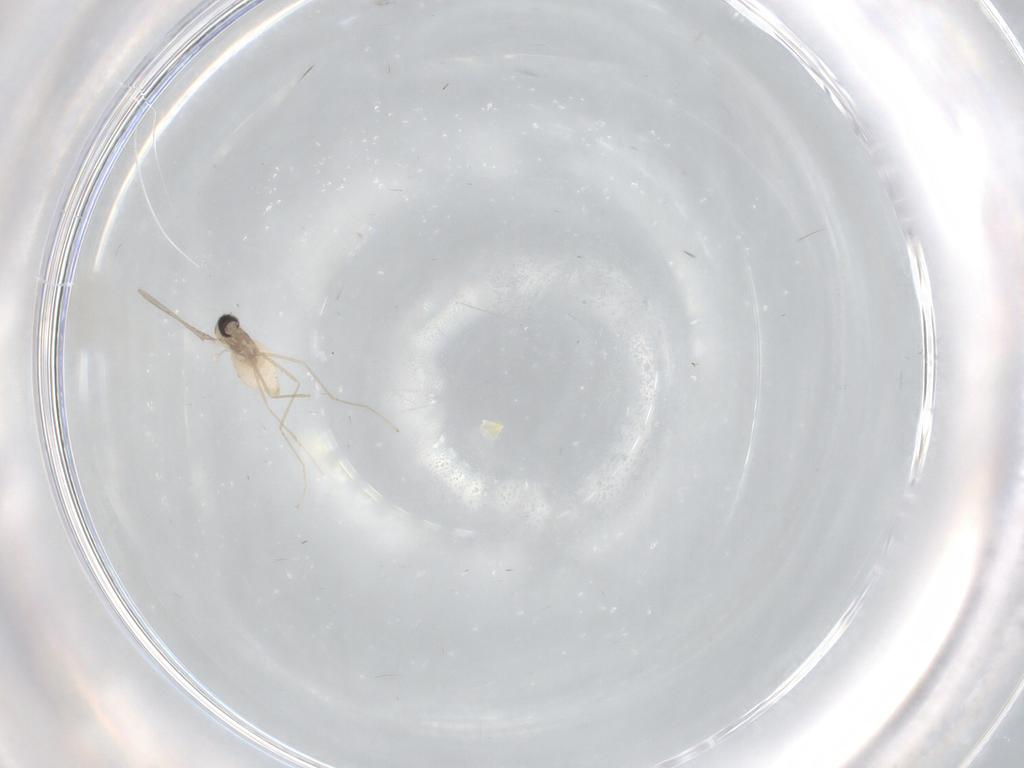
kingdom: Animalia
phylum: Arthropoda
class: Insecta
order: Diptera
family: Cecidomyiidae
